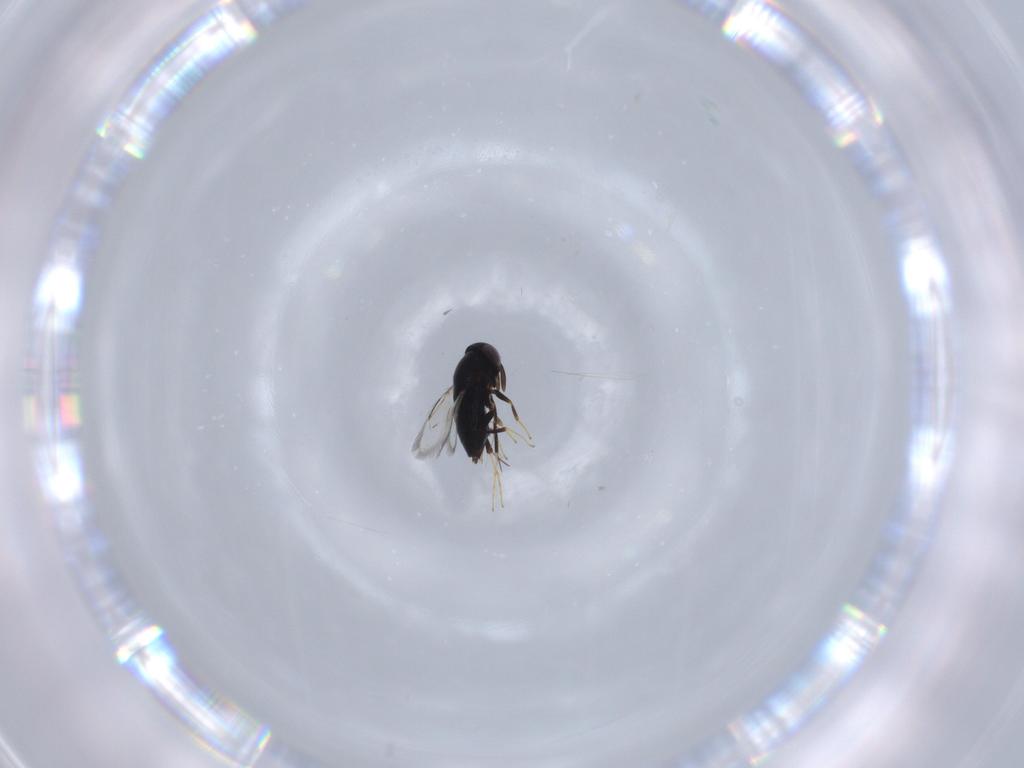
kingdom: Animalia
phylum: Arthropoda
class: Insecta
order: Hymenoptera
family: Signiphoridae
